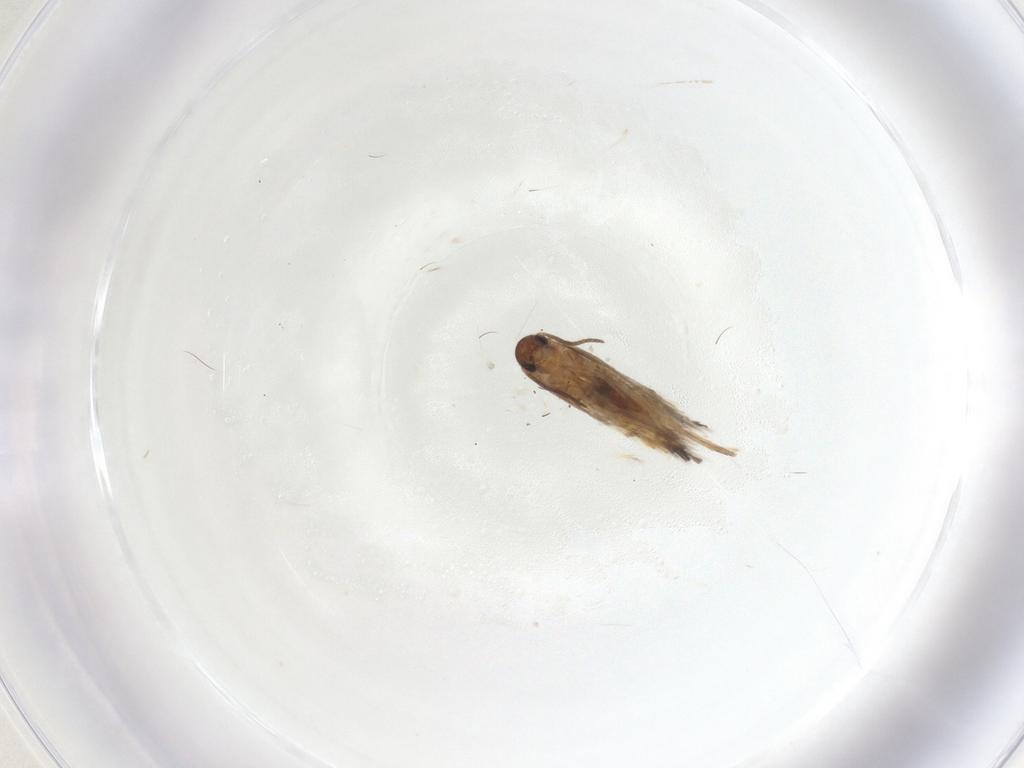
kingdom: Animalia
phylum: Arthropoda
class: Insecta
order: Lepidoptera
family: Heliozelidae
